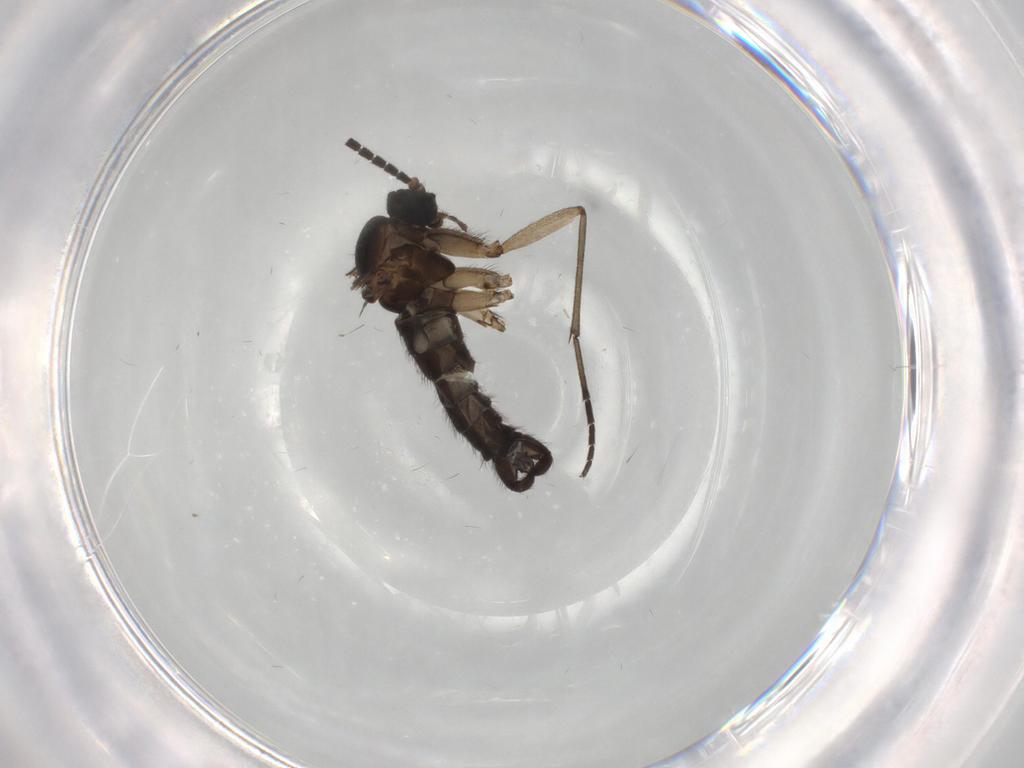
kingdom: Animalia
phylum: Arthropoda
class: Insecta
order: Diptera
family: Sciaridae
